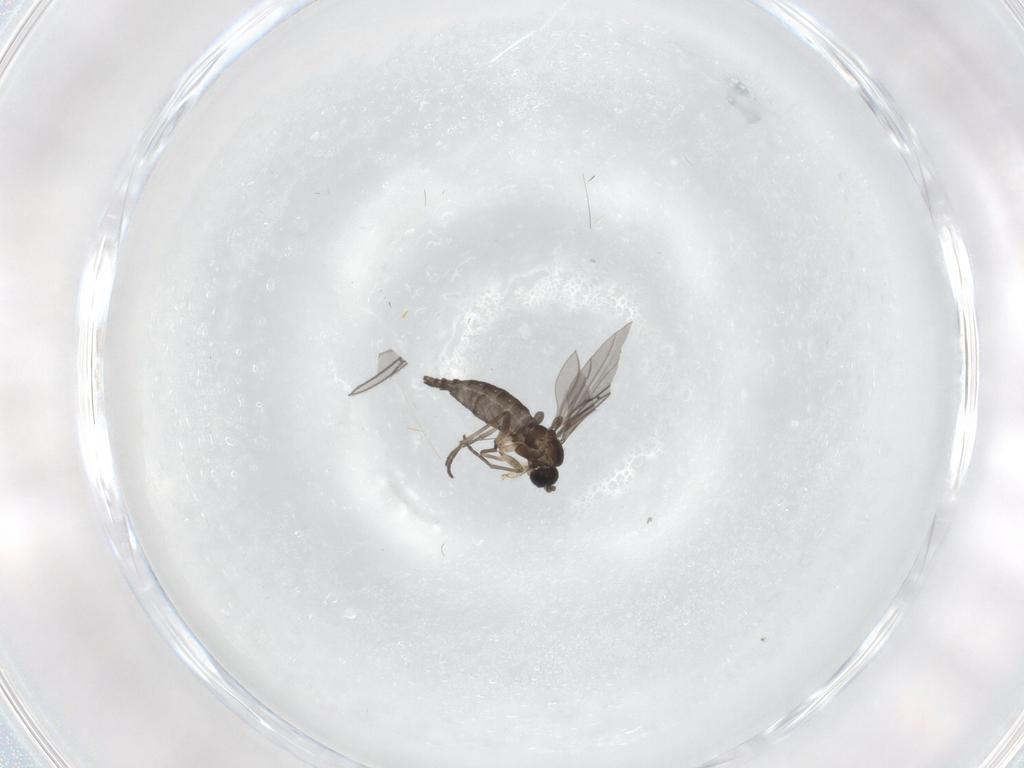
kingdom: Animalia
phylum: Arthropoda
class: Insecta
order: Diptera
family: Sciaridae
